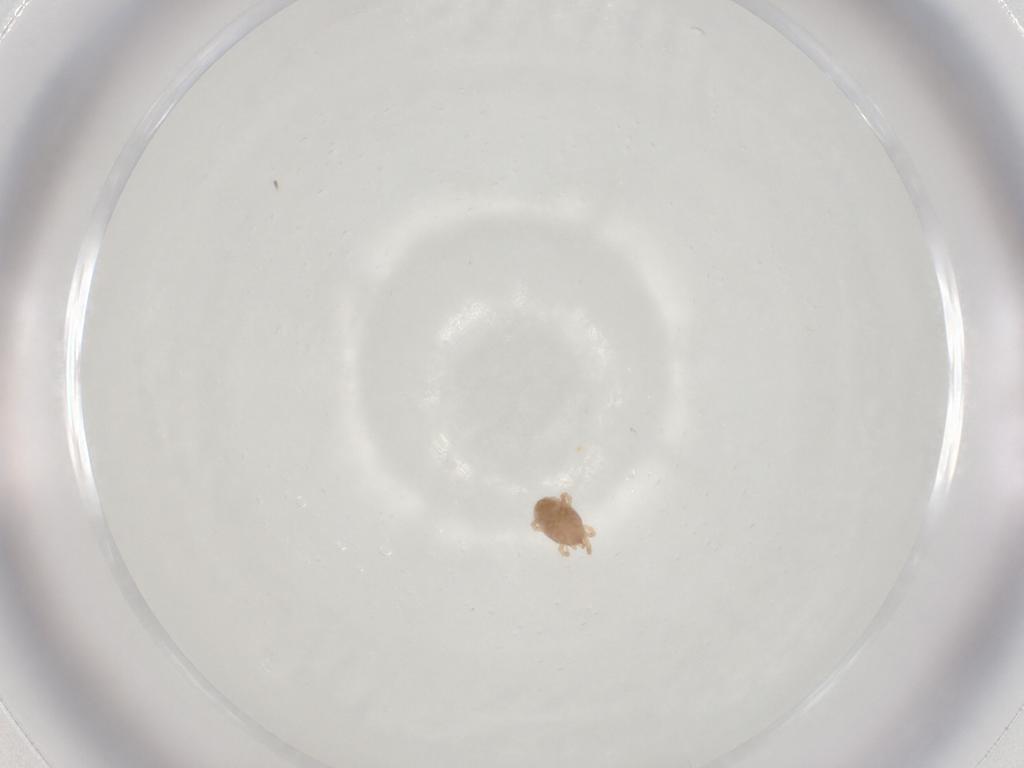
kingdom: Animalia
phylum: Arthropoda
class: Arachnida
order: Mesostigmata
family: Blattisociidae
